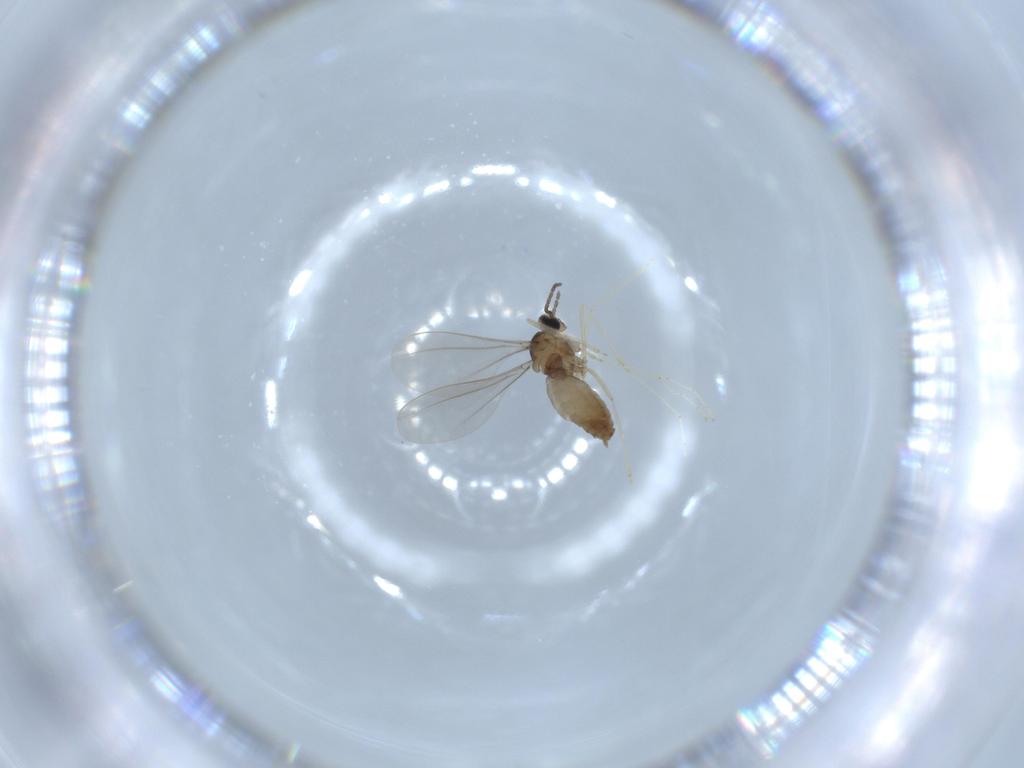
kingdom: Animalia
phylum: Arthropoda
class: Insecta
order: Diptera
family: Cecidomyiidae
